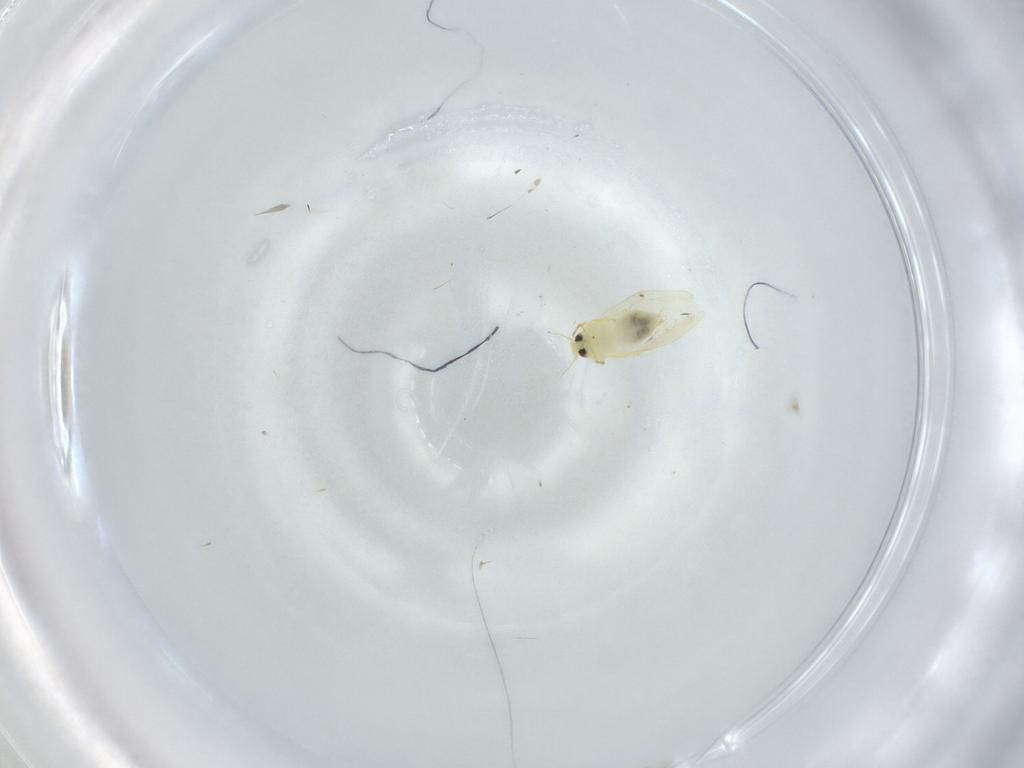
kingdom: Animalia
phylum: Arthropoda
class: Insecta
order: Hemiptera
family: Aleyrodidae
